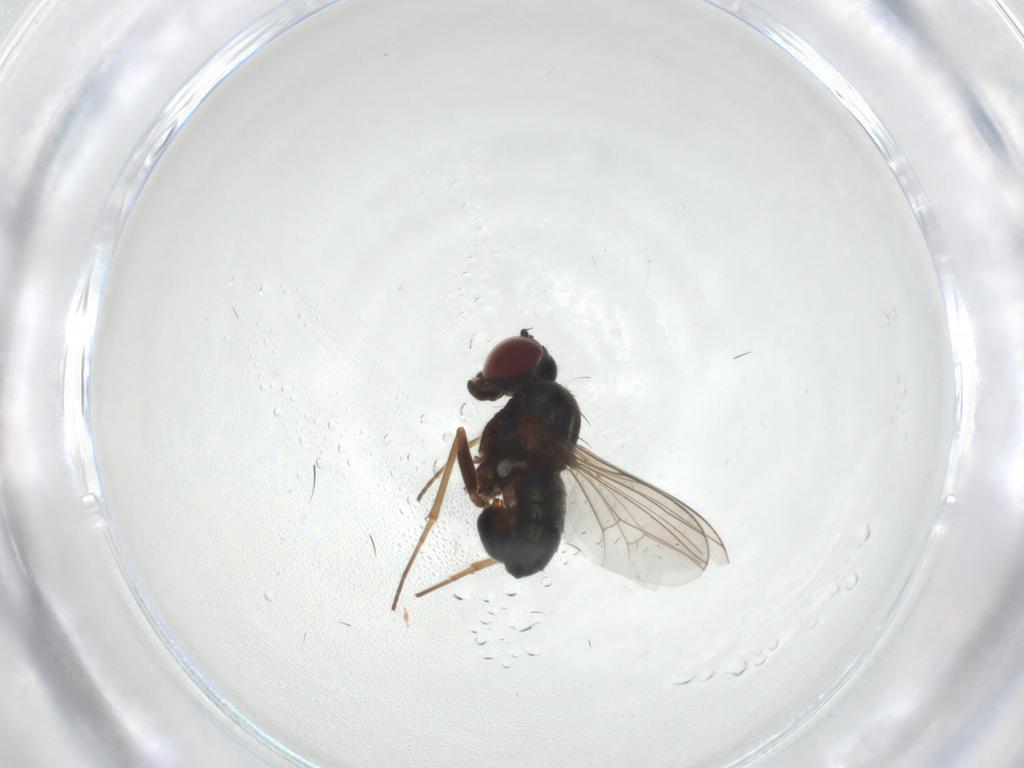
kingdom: Animalia
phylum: Arthropoda
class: Insecta
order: Diptera
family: Dolichopodidae
